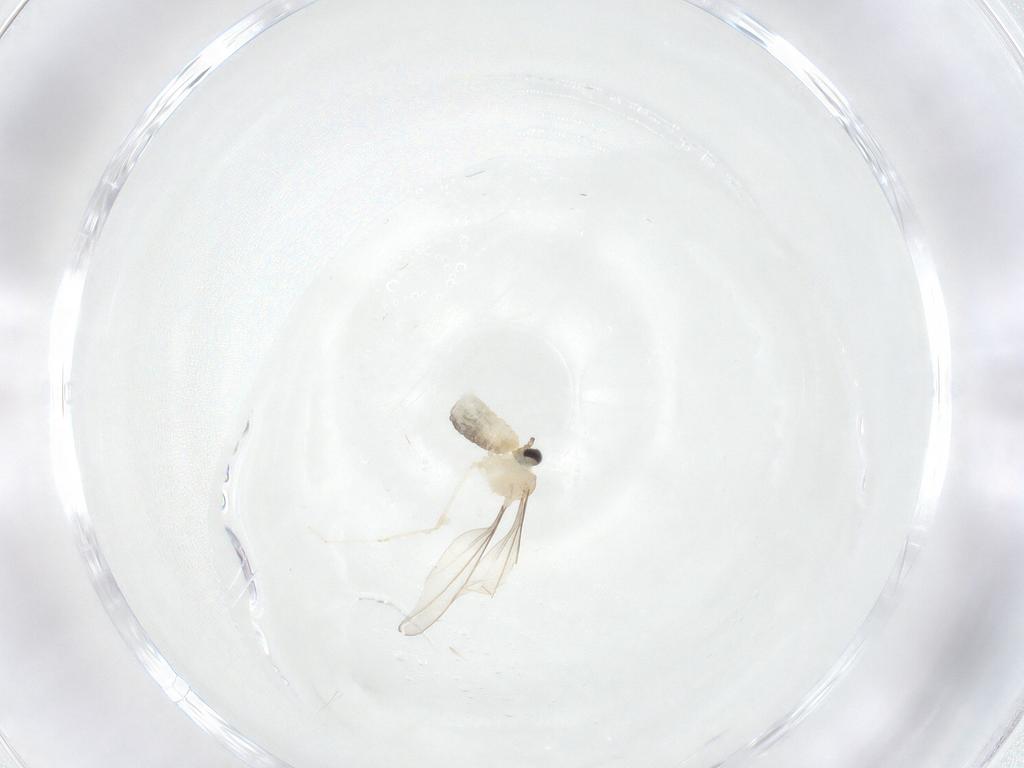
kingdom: Animalia
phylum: Arthropoda
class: Insecta
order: Diptera
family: Cecidomyiidae
